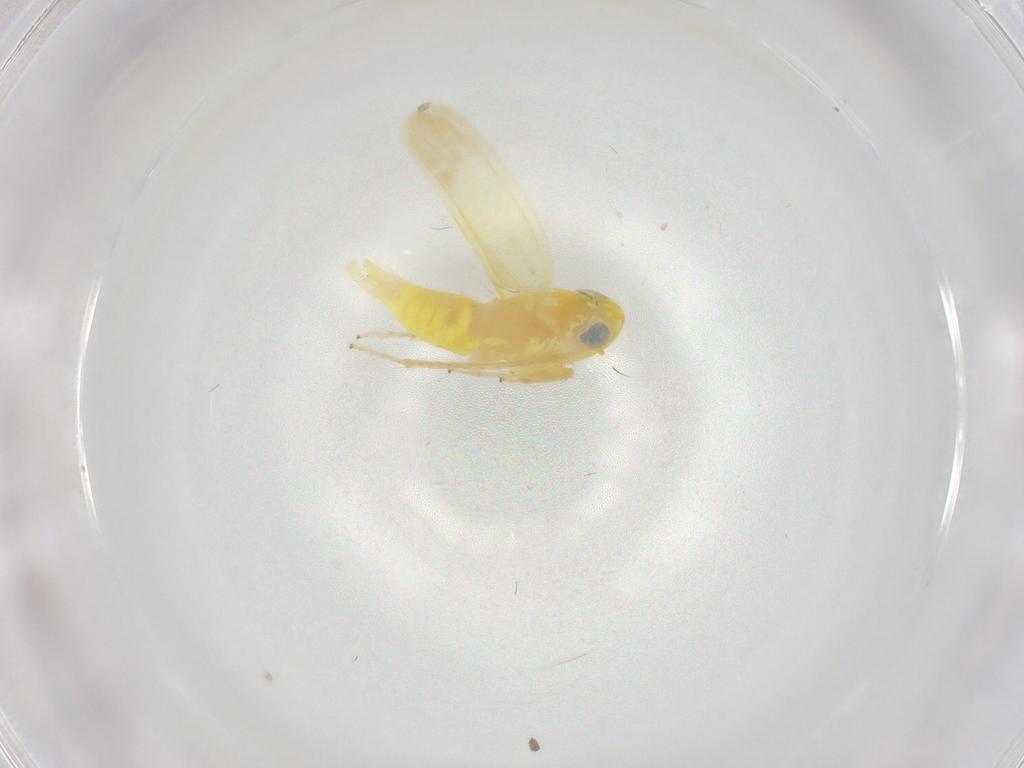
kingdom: Animalia
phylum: Arthropoda
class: Insecta
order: Hemiptera
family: Cicadellidae
